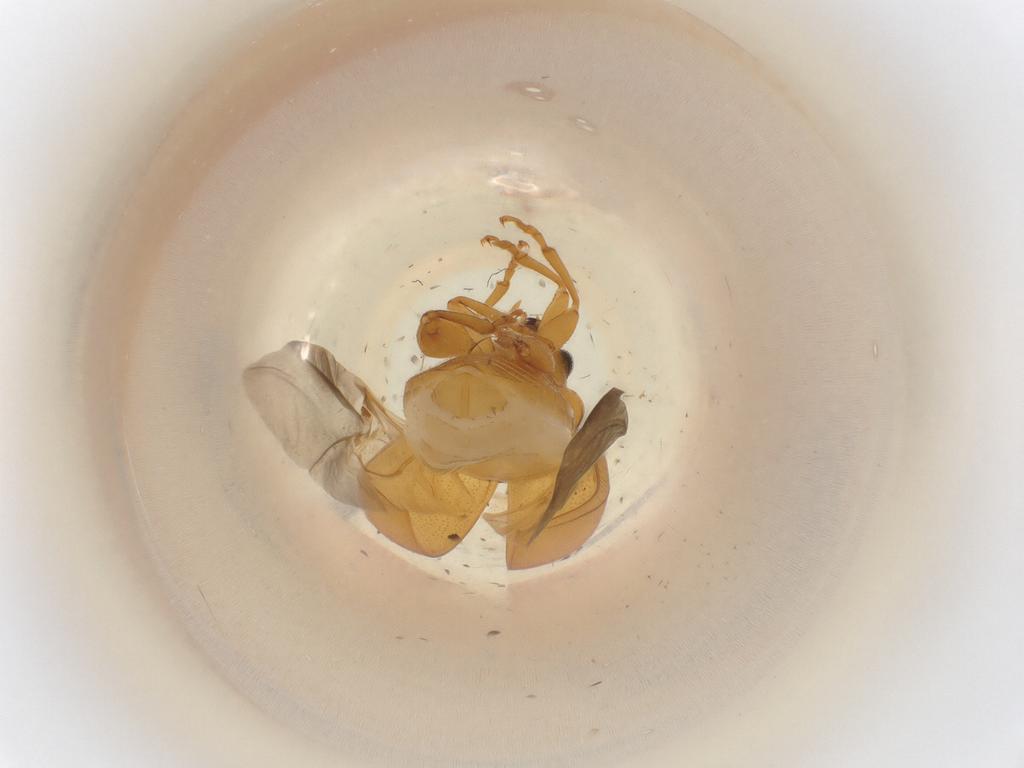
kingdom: Animalia
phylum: Arthropoda
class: Insecta
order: Coleoptera
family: Chrysomelidae
